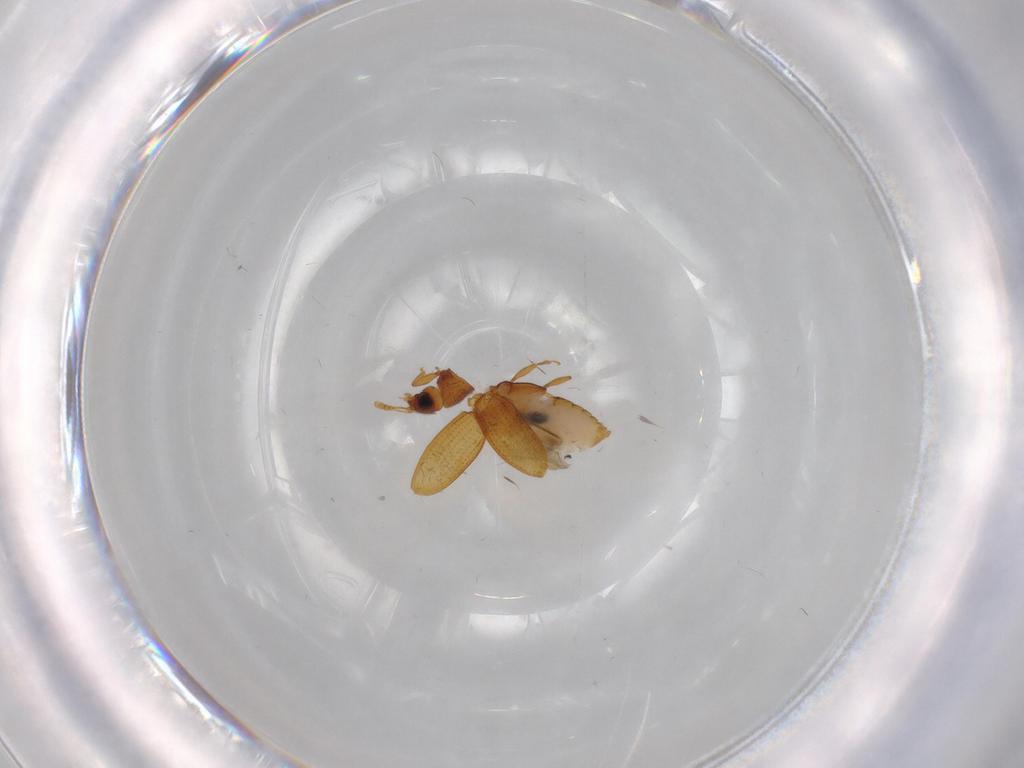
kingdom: Animalia
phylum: Arthropoda
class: Insecta
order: Coleoptera
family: Latridiidae
